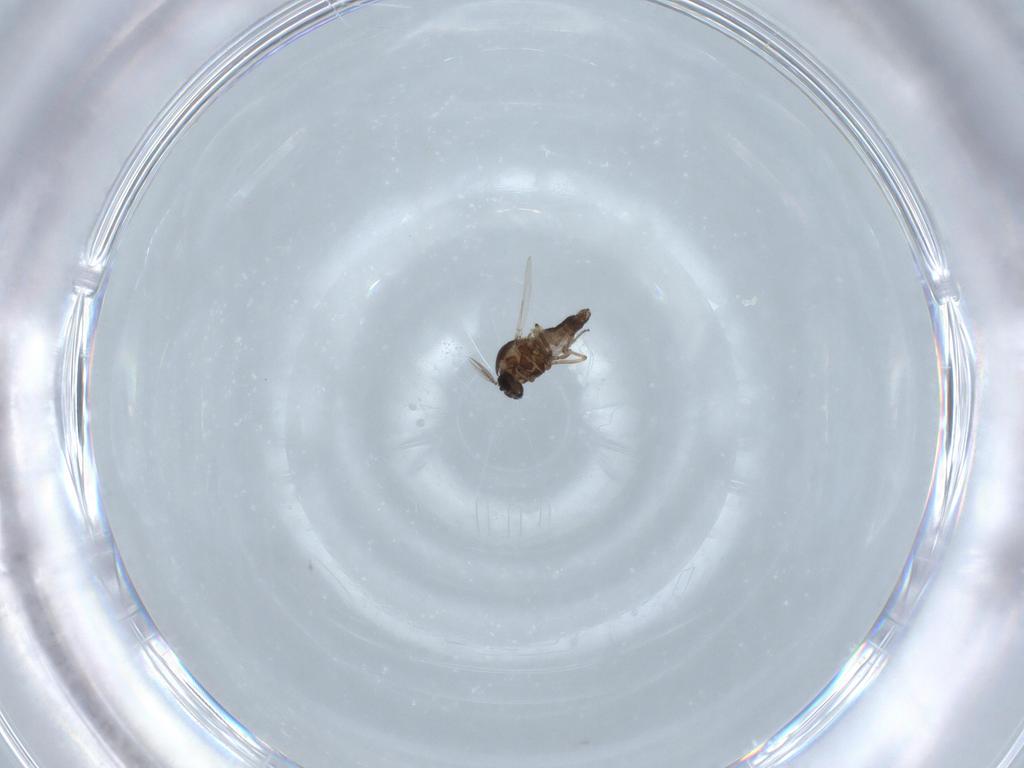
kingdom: Animalia
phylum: Arthropoda
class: Insecta
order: Diptera
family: Ceratopogonidae
